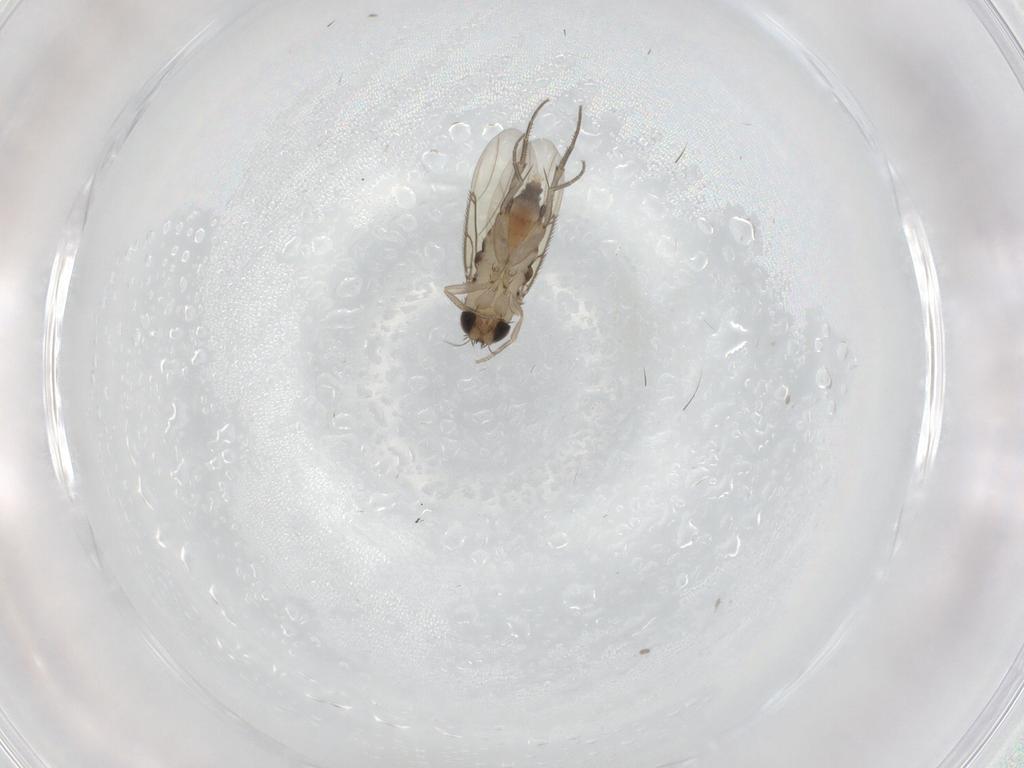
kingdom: Animalia
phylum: Arthropoda
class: Insecta
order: Diptera
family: Phoridae
